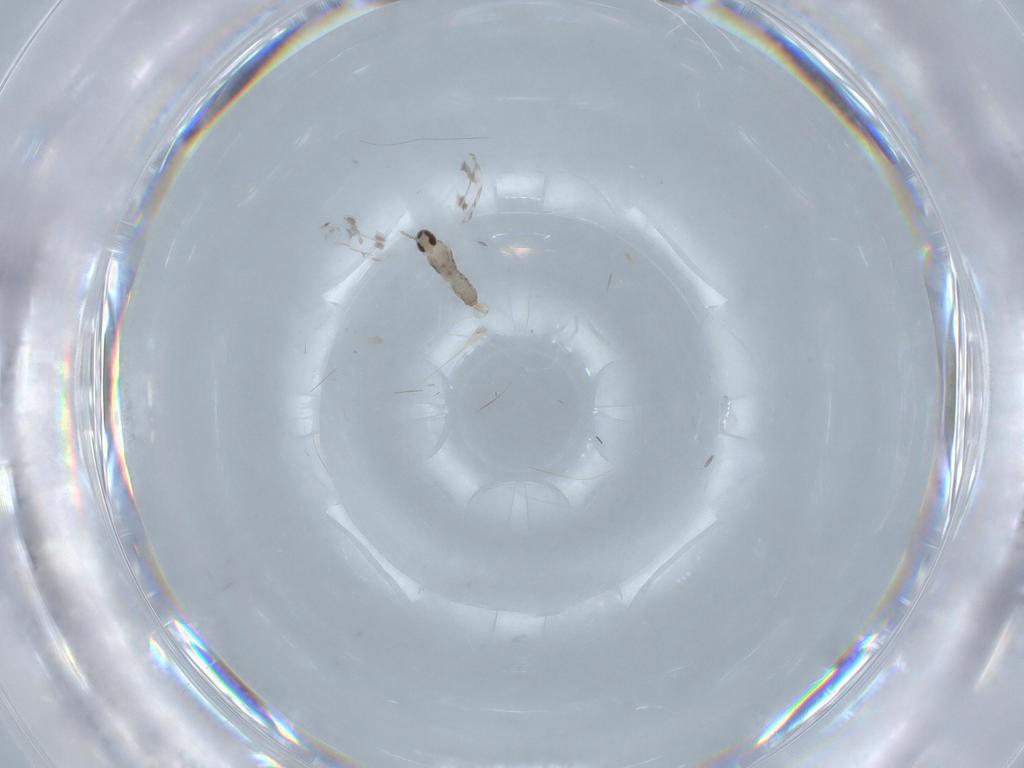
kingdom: Animalia
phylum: Arthropoda
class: Insecta
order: Diptera
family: Cecidomyiidae
